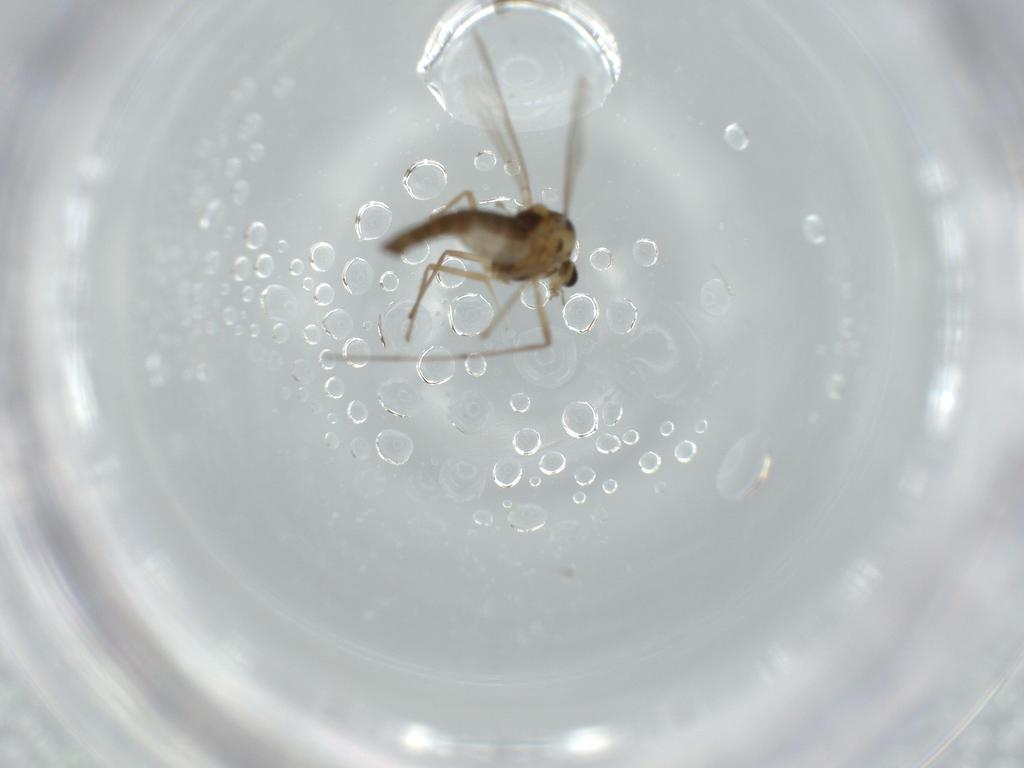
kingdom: Animalia
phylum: Arthropoda
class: Insecta
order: Diptera
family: Chironomidae
